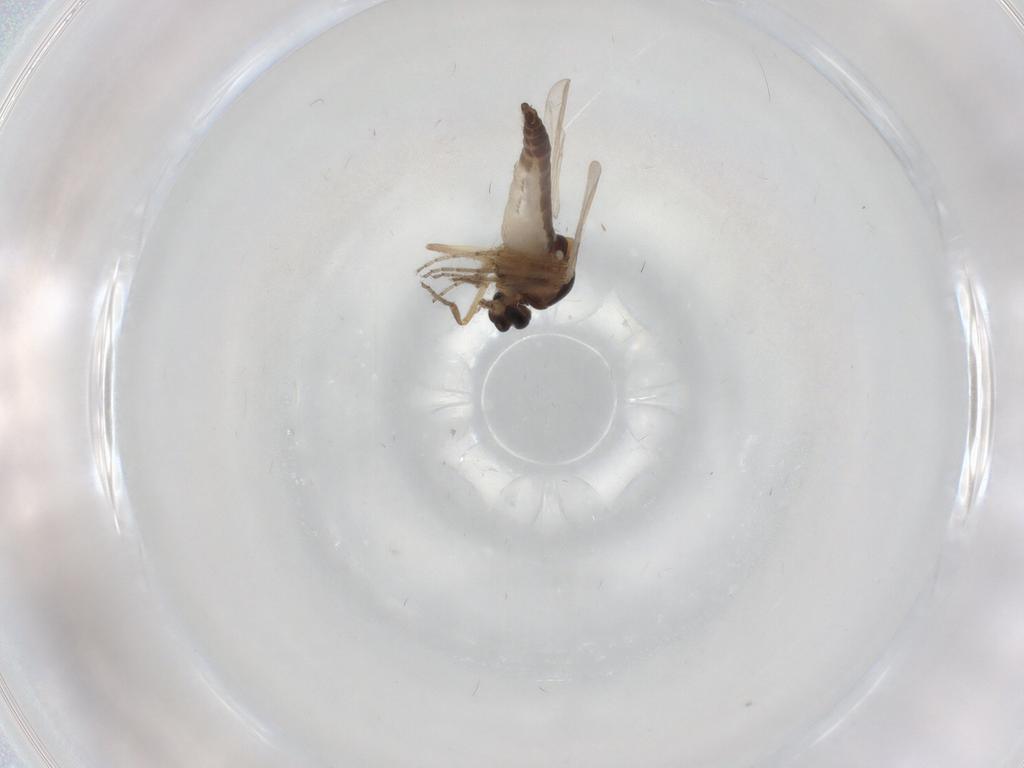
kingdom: Animalia
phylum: Arthropoda
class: Insecta
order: Diptera
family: Ceratopogonidae
